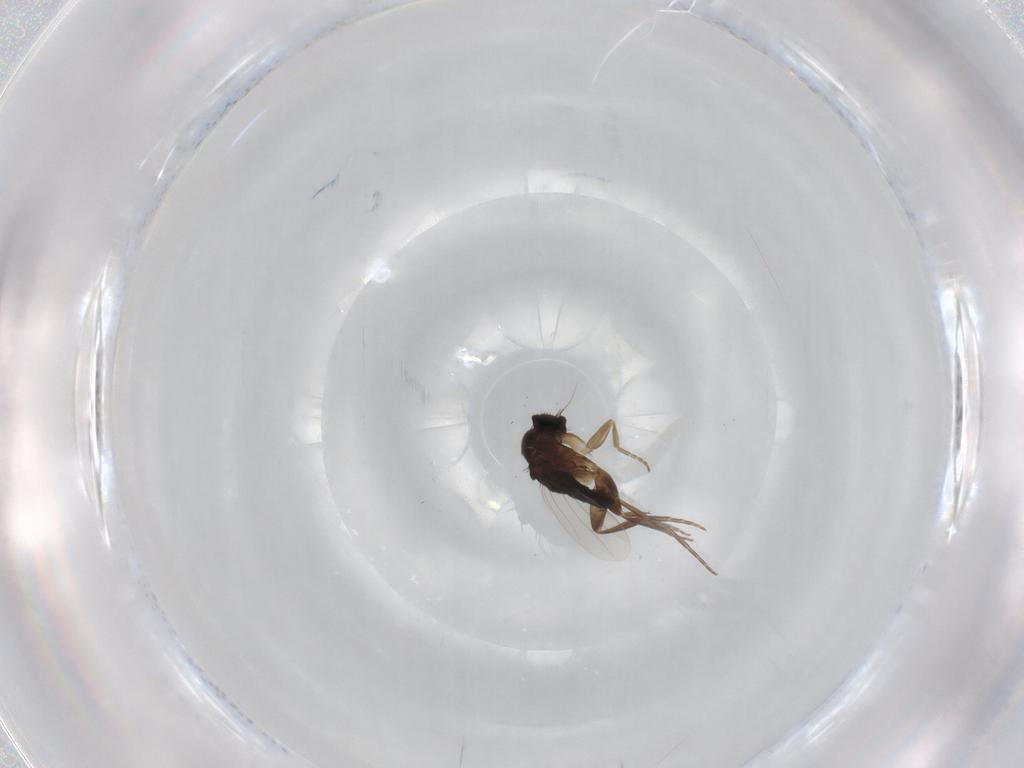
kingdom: Animalia
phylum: Arthropoda
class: Insecta
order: Diptera
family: Phoridae
